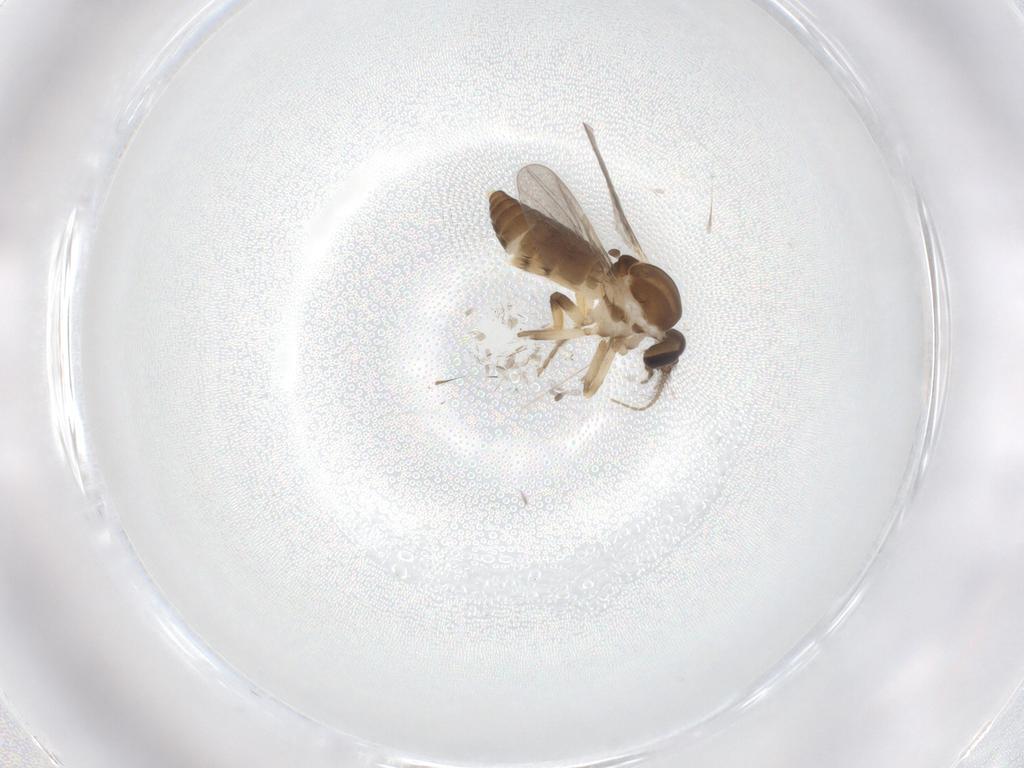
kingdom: Animalia
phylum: Arthropoda
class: Insecta
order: Diptera
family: Ceratopogonidae
